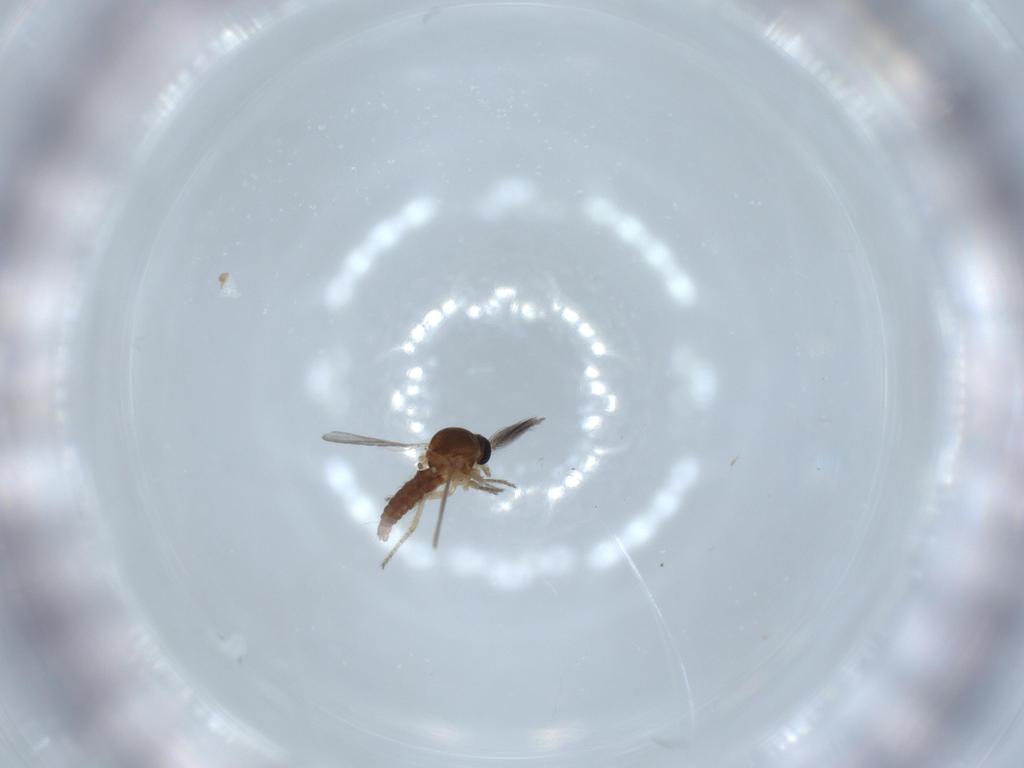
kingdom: Animalia
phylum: Arthropoda
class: Insecta
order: Diptera
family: Ceratopogonidae
